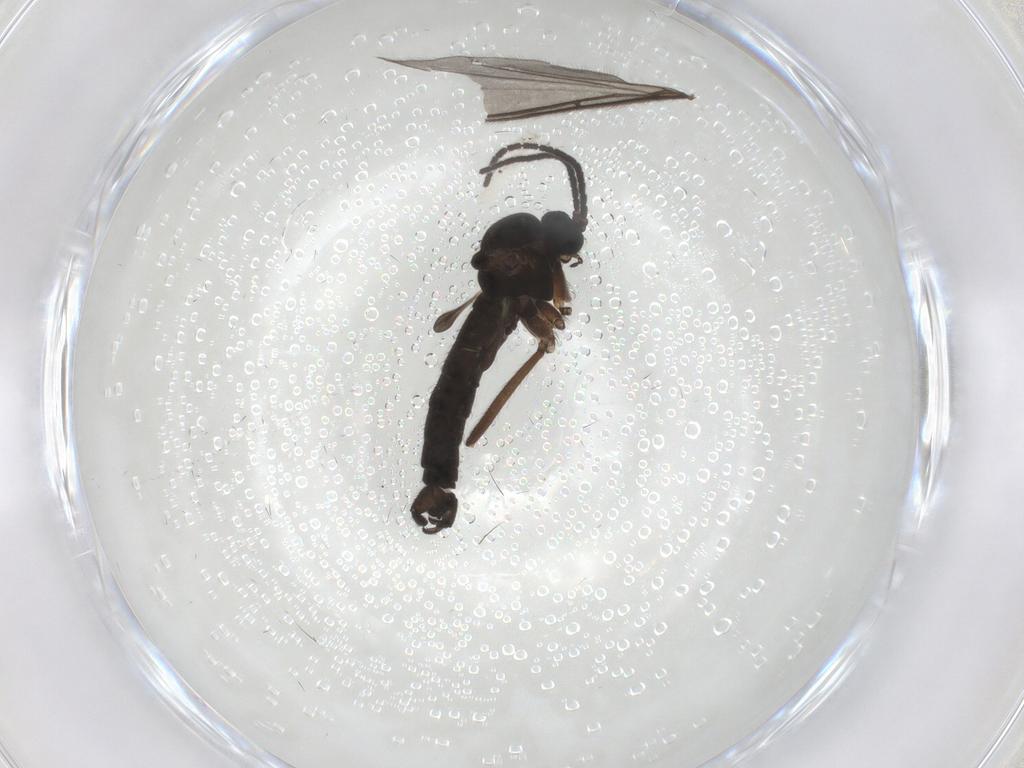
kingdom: Animalia
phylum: Arthropoda
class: Insecta
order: Diptera
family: Sciaridae
